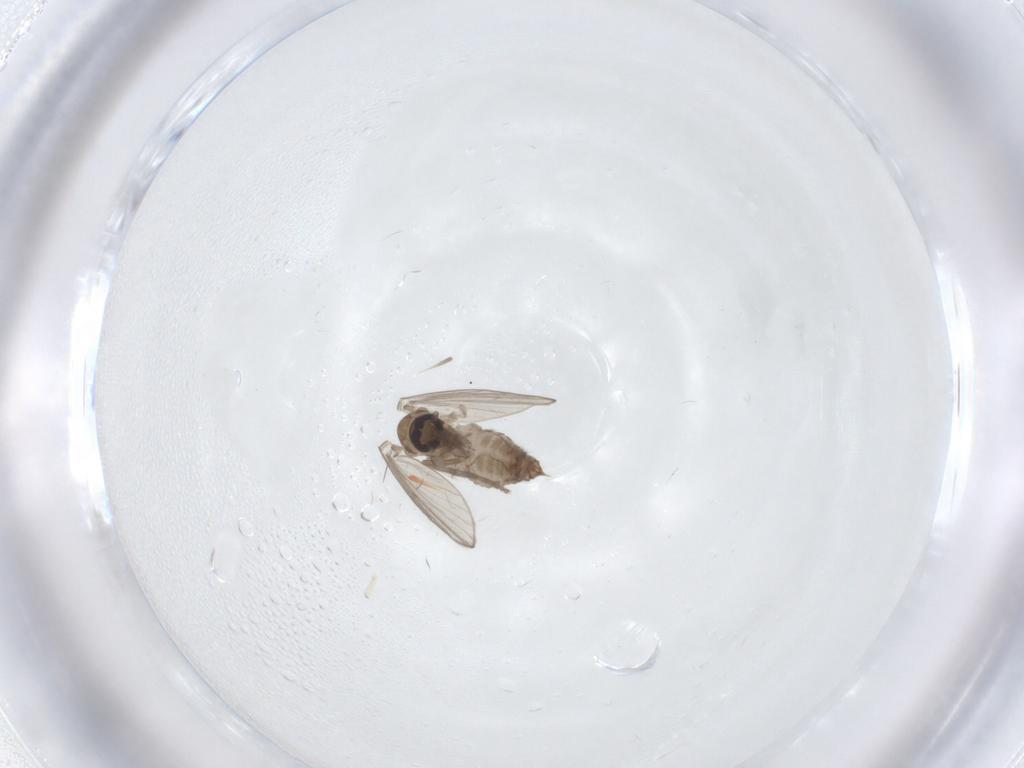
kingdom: Animalia
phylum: Arthropoda
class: Insecta
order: Diptera
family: Psychodidae
